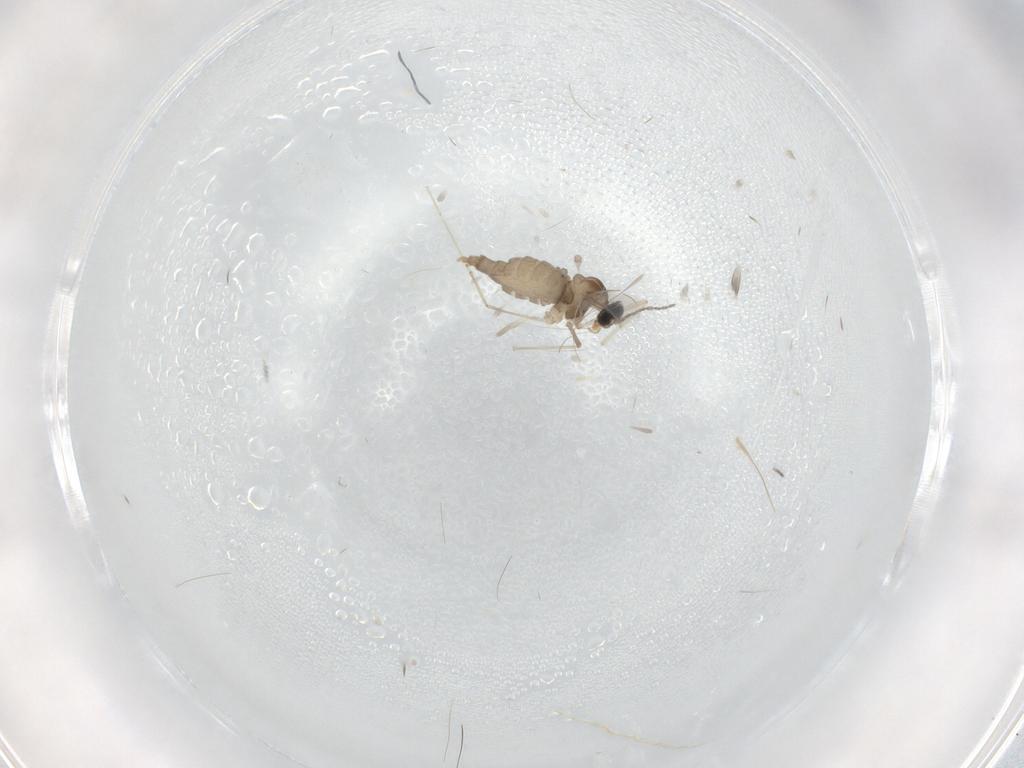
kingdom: Animalia
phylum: Arthropoda
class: Insecta
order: Diptera
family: Cecidomyiidae
